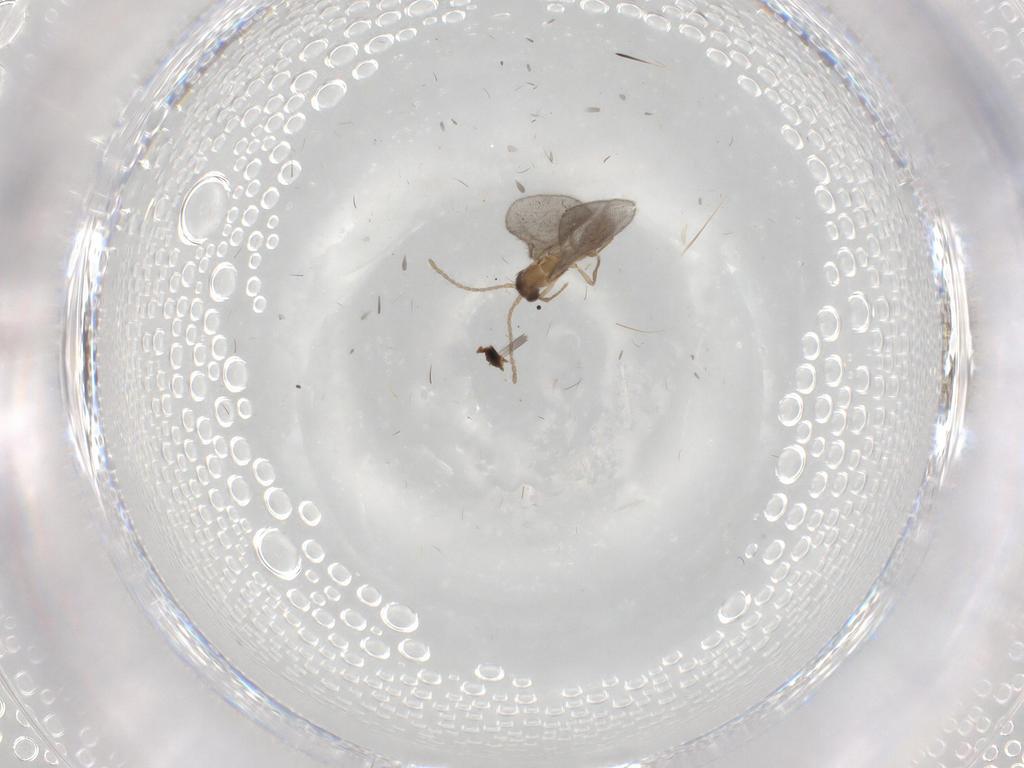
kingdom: Animalia
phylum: Arthropoda
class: Insecta
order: Hymenoptera
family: Formicidae
